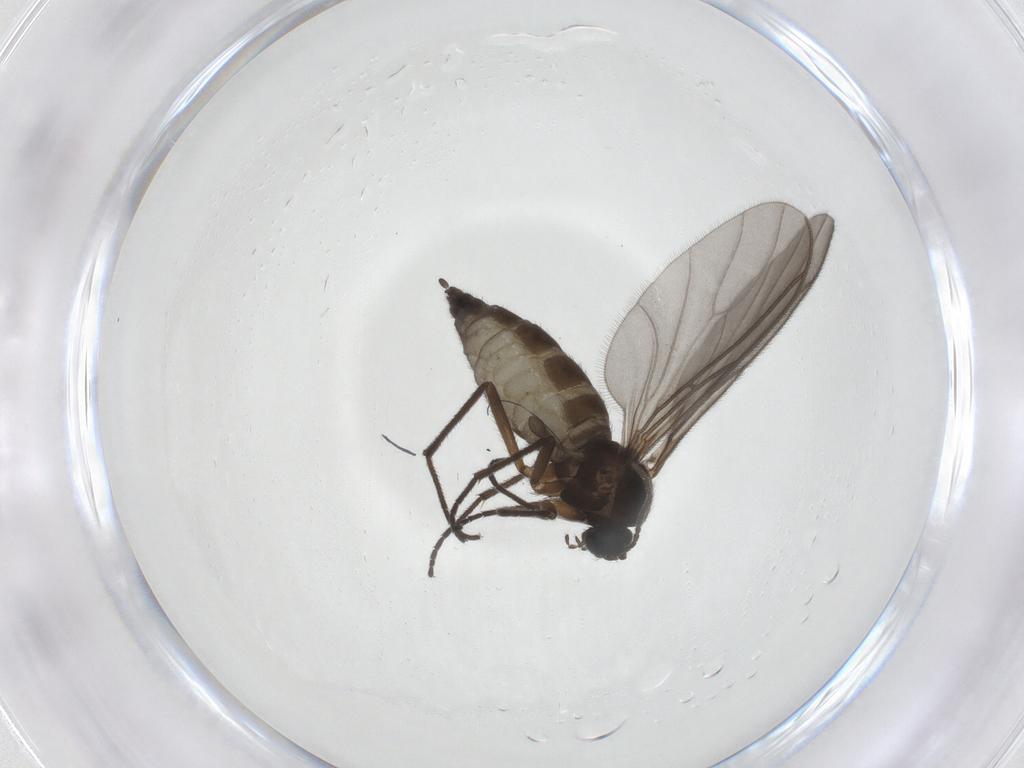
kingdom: Animalia
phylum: Arthropoda
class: Insecta
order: Diptera
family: Sciaridae
